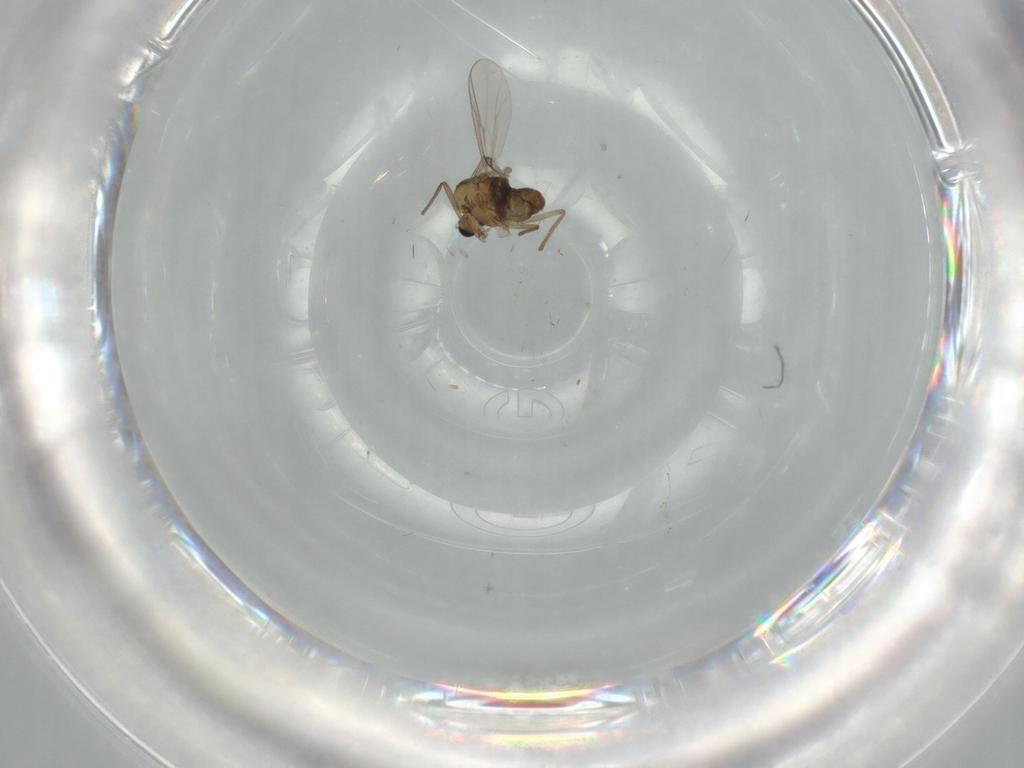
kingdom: Animalia
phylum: Arthropoda
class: Insecta
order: Diptera
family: Chironomidae
